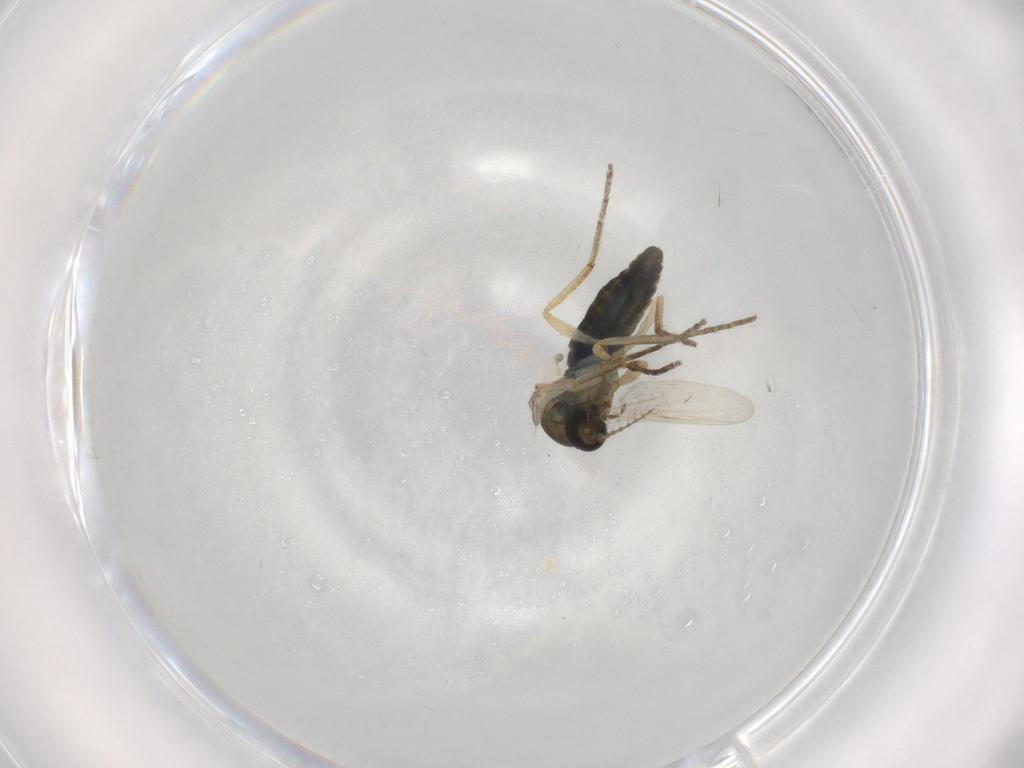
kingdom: Animalia
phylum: Arthropoda
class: Insecta
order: Diptera
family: Ceratopogonidae
